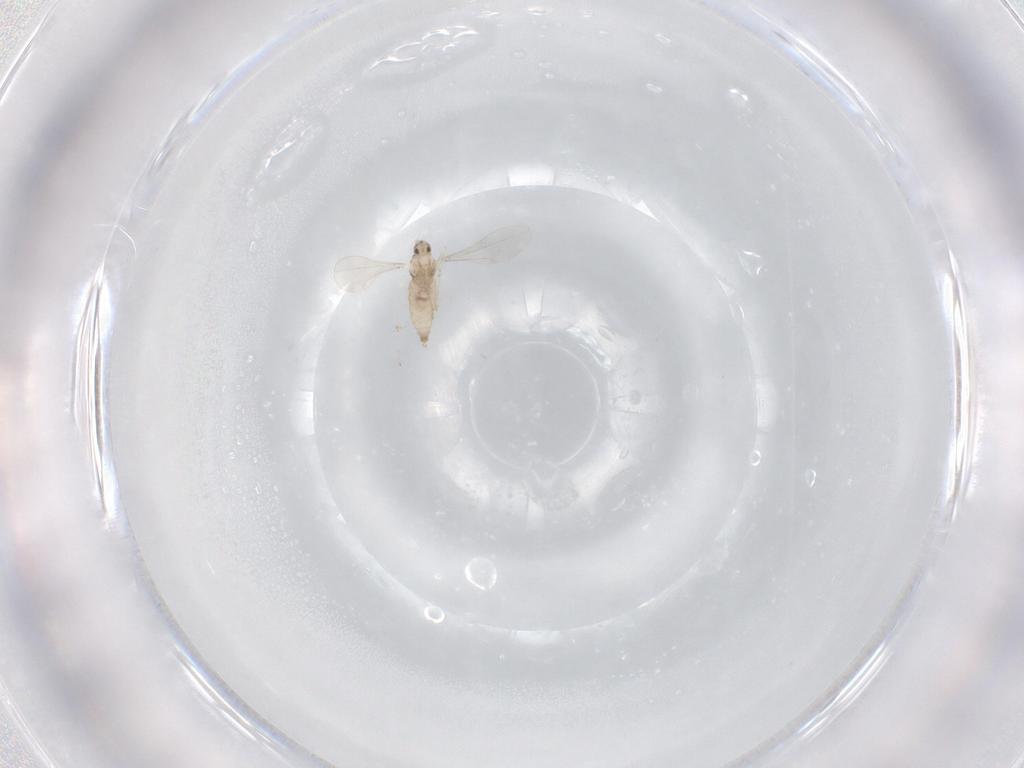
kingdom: Animalia
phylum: Arthropoda
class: Insecta
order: Diptera
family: Cecidomyiidae
